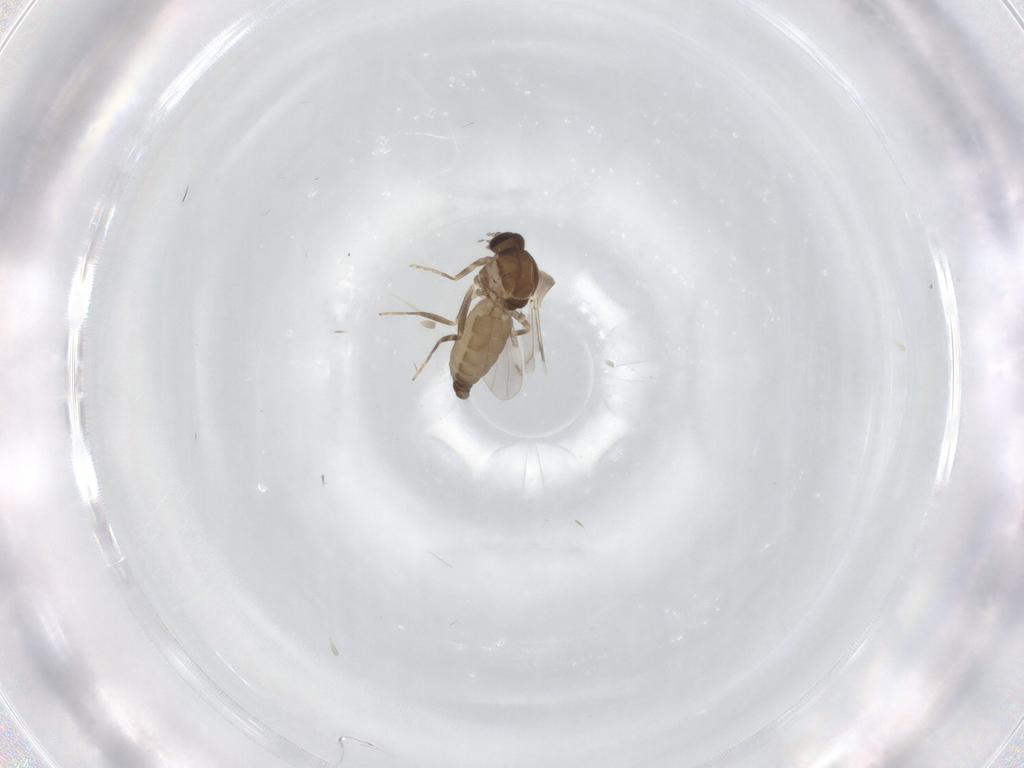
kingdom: Animalia
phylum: Arthropoda
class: Insecta
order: Diptera
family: Ceratopogonidae
